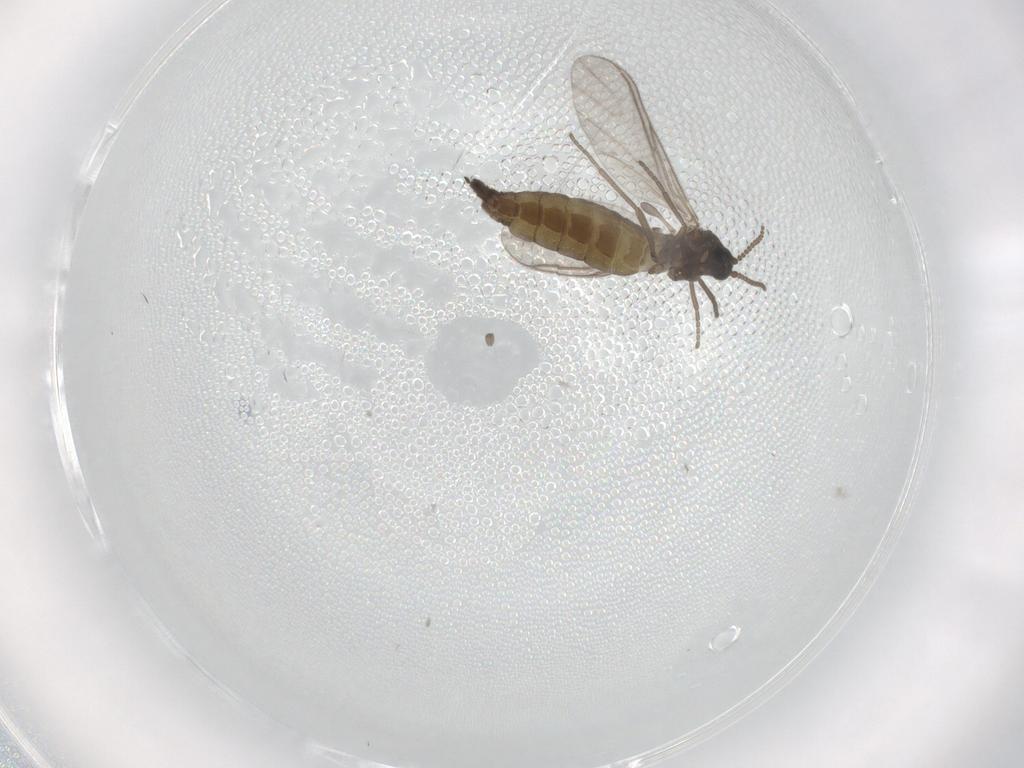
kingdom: Animalia
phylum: Arthropoda
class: Insecta
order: Diptera
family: Sciaridae
